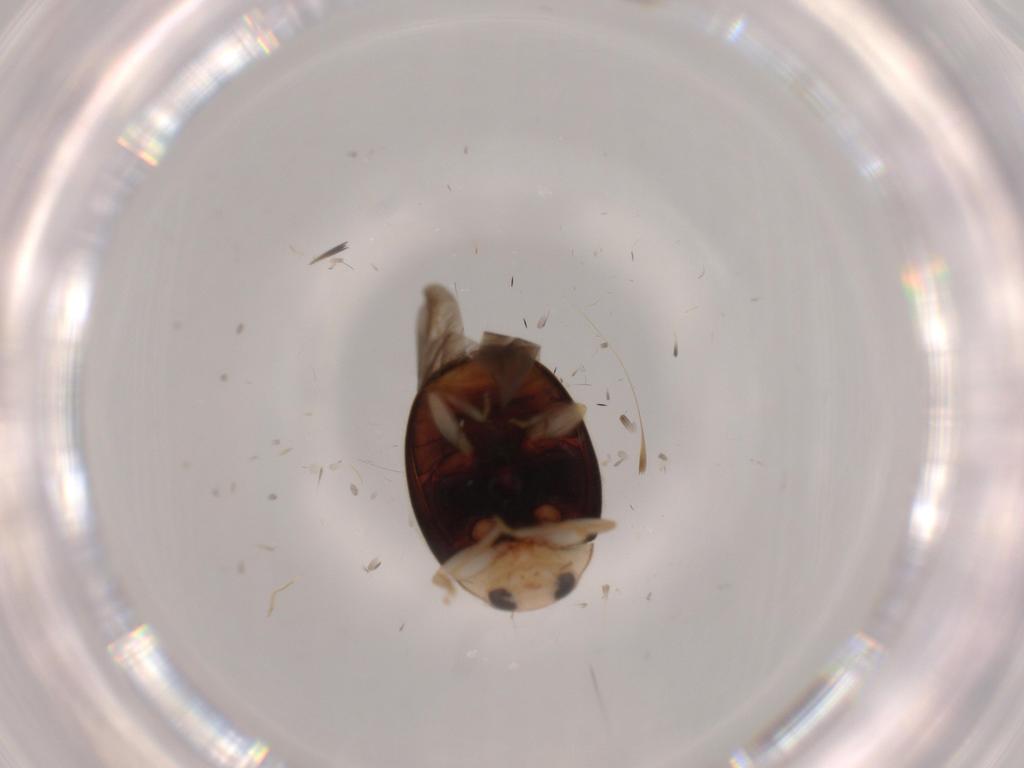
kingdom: Animalia
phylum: Arthropoda
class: Insecta
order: Coleoptera
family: Coccinellidae
